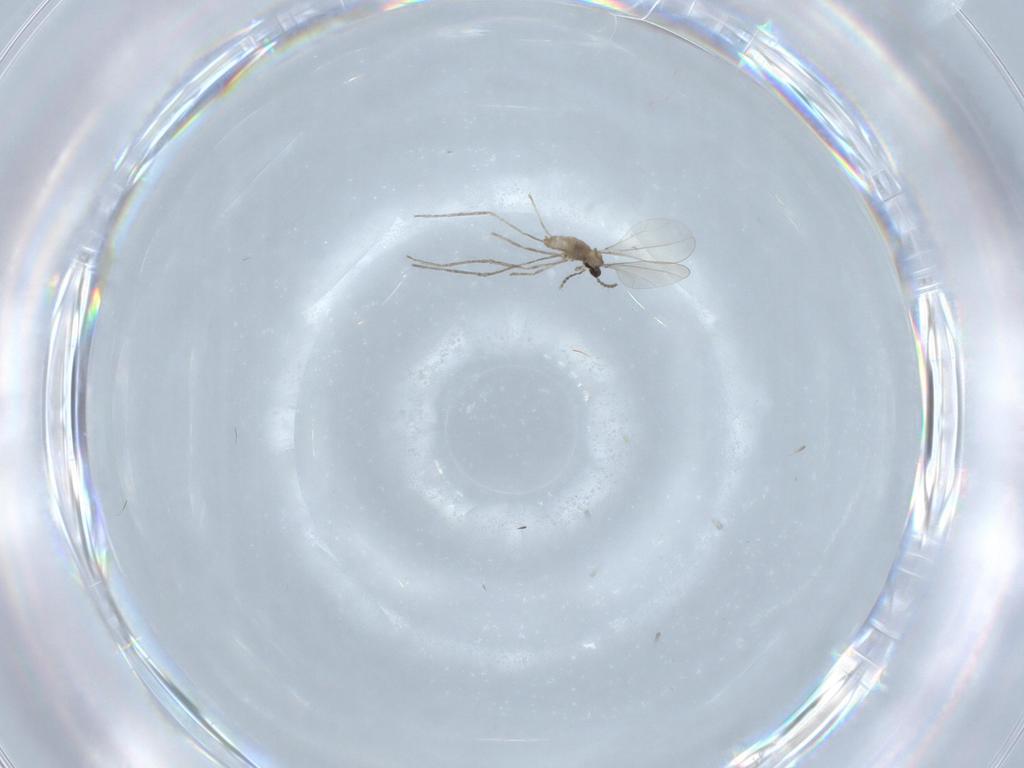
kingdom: Animalia
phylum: Arthropoda
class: Insecta
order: Diptera
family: Cecidomyiidae
